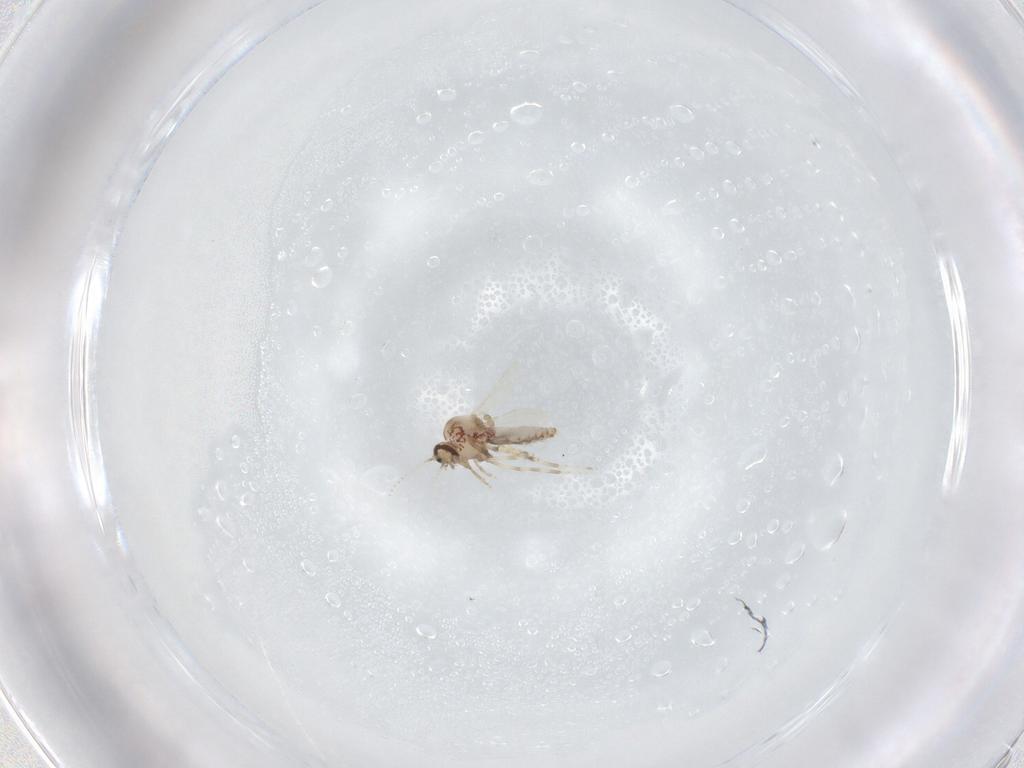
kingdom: Animalia
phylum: Arthropoda
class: Insecta
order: Diptera
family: Ceratopogonidae
